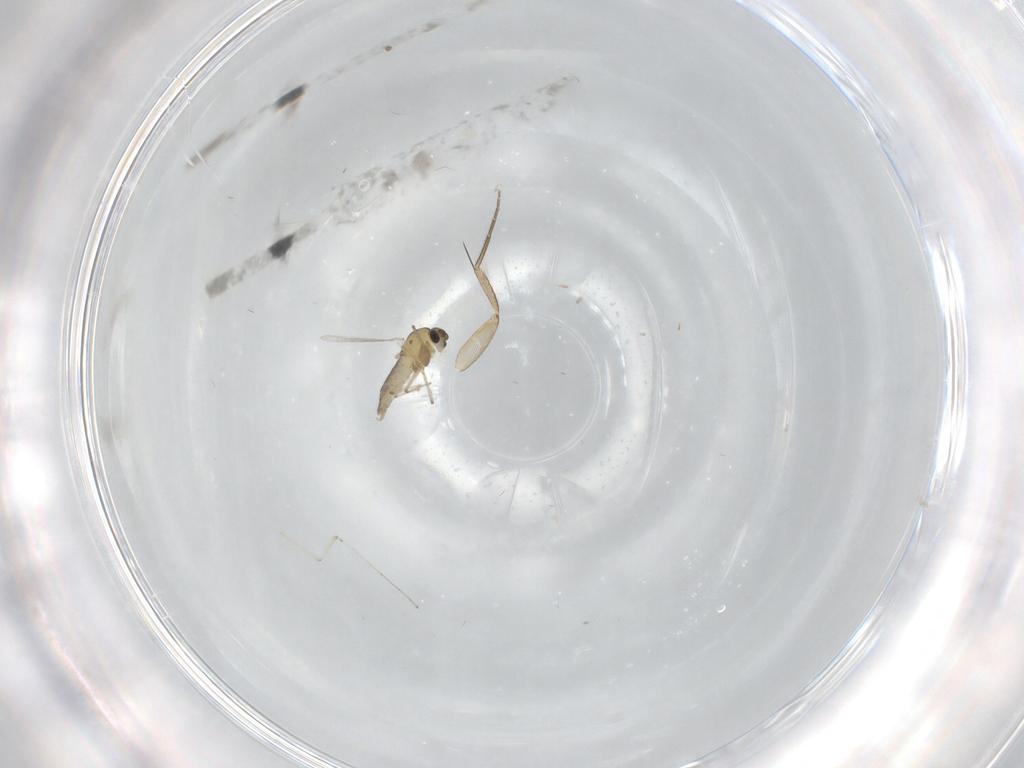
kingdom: Animalia
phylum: Arthropoda
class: Insecta
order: Diptera
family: Chironomidae
